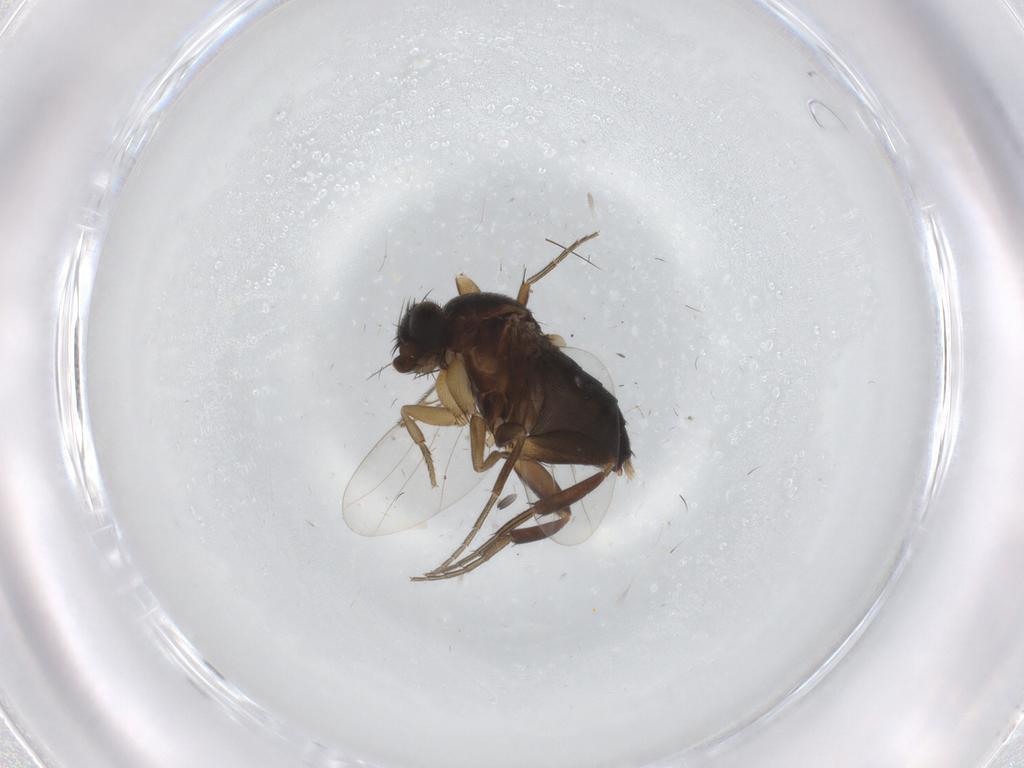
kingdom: Animalia
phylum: Arthropoda
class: Insecta
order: Diptera
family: Phoridae
